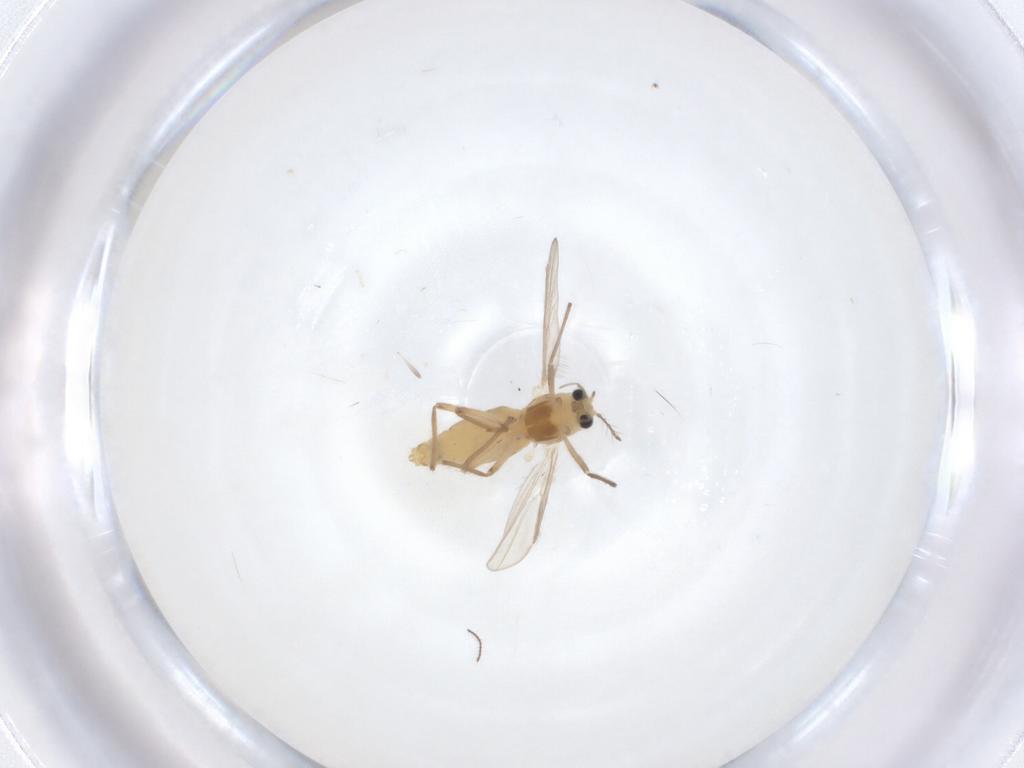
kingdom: Animalia
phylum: Arthropoda
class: Insecta
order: Diptera
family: Chironomidae
